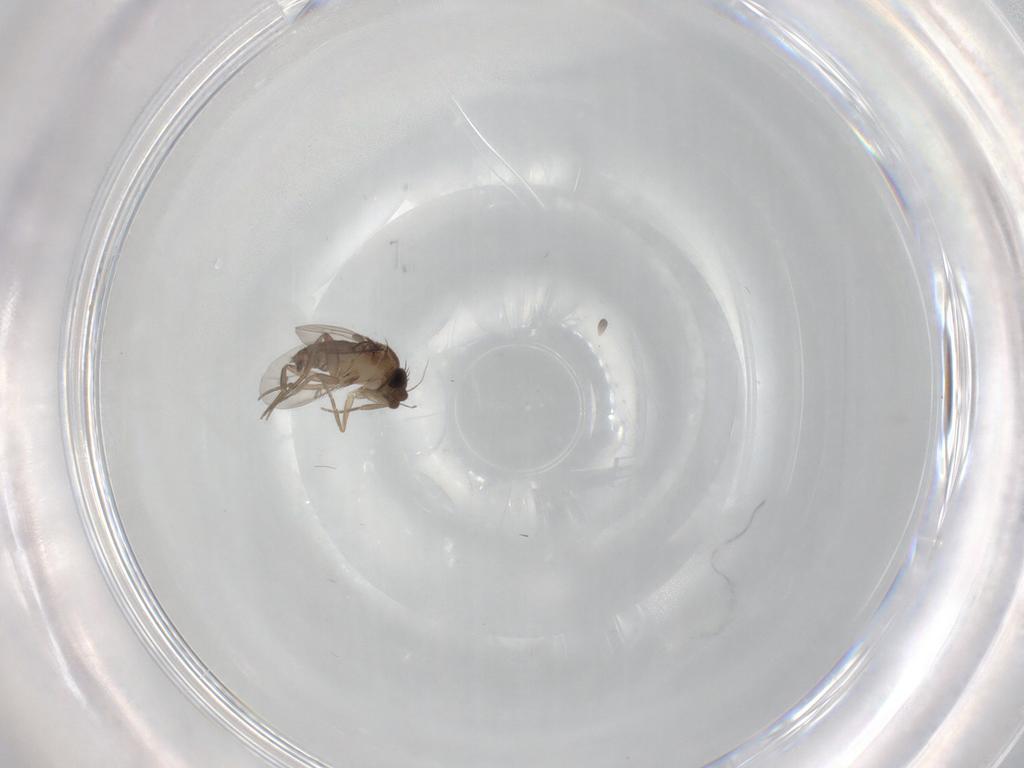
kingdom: Animalia
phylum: Arthropoda
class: Insecta
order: Diptera
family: Phoridae
